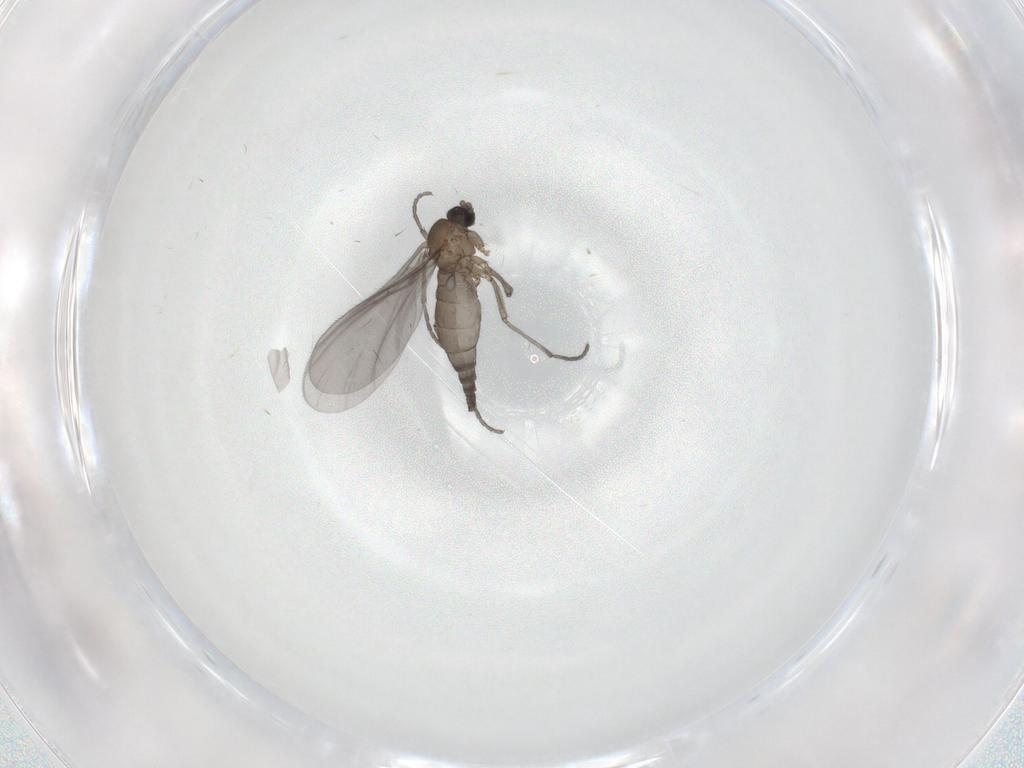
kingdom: Animalia
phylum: Arthropoda
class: Insecta
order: Diptera
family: Sciaridae
